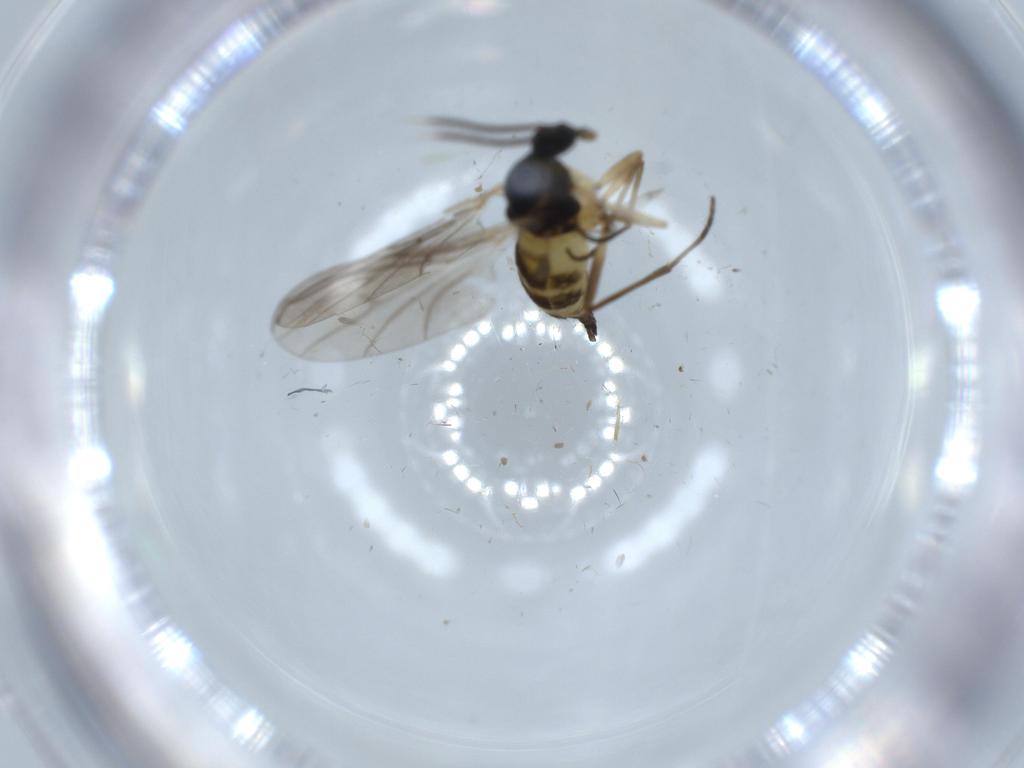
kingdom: Animalia
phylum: Arthropoda
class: Insecta
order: Diptera
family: Sciaridae
